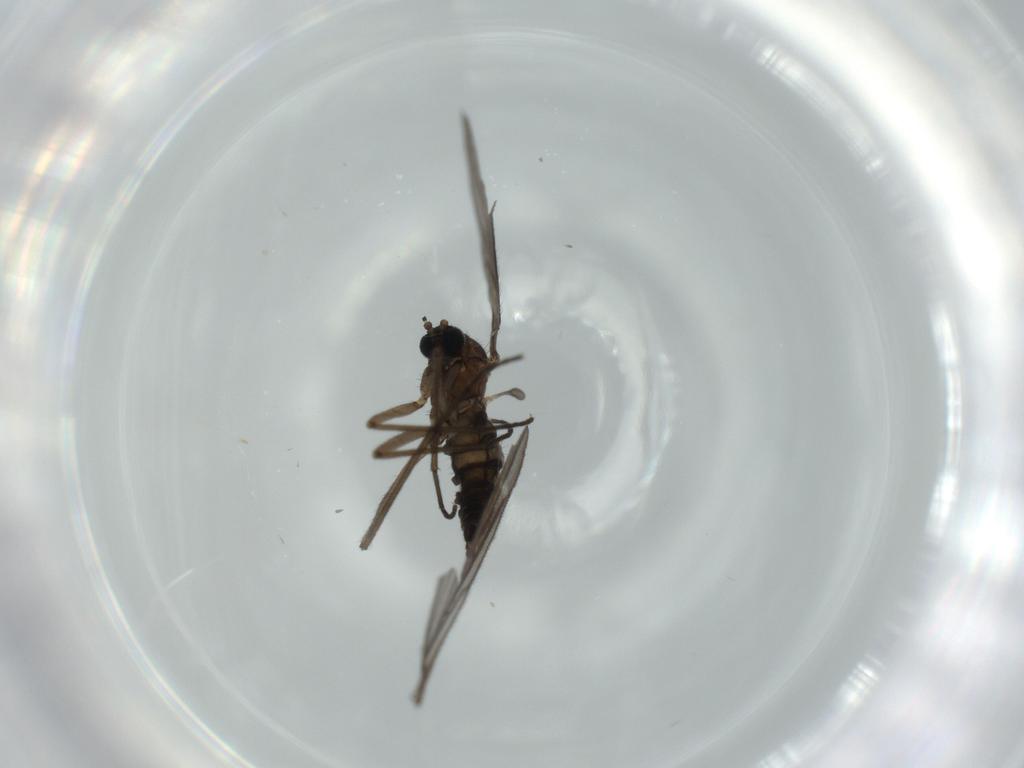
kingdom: Animalia
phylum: Arthropoda
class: Insecta
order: Diptera
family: Sciaridae
